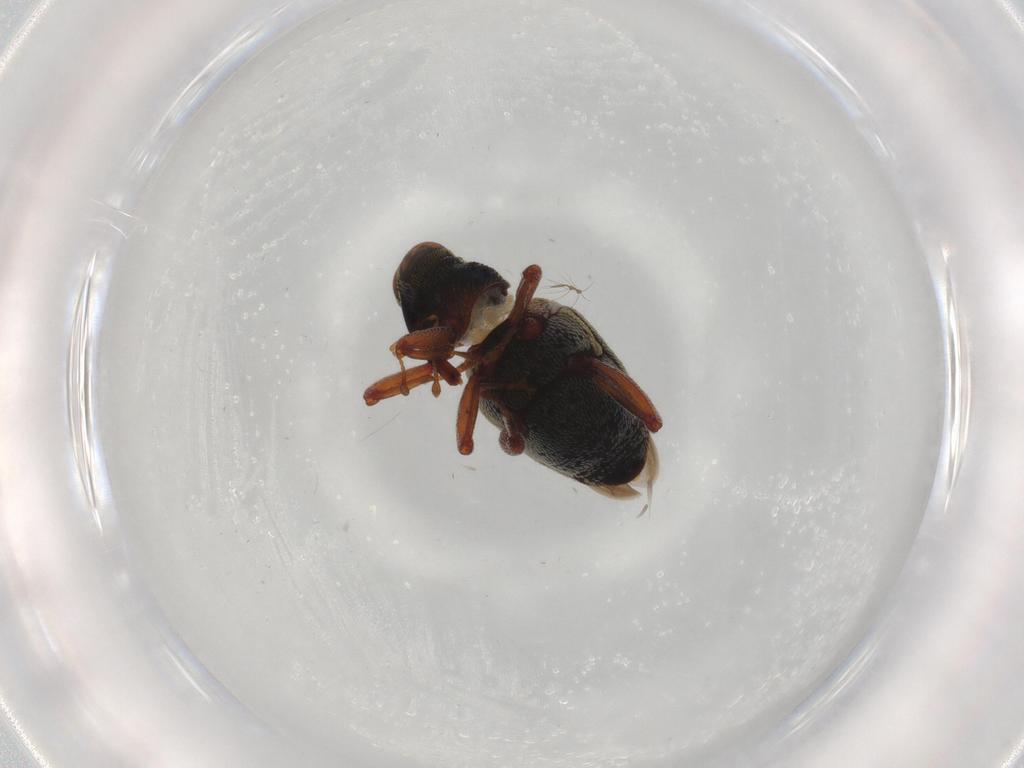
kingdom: Animalia
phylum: Arthropoda
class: Insecta
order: Coleoptera
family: Curculionidae
